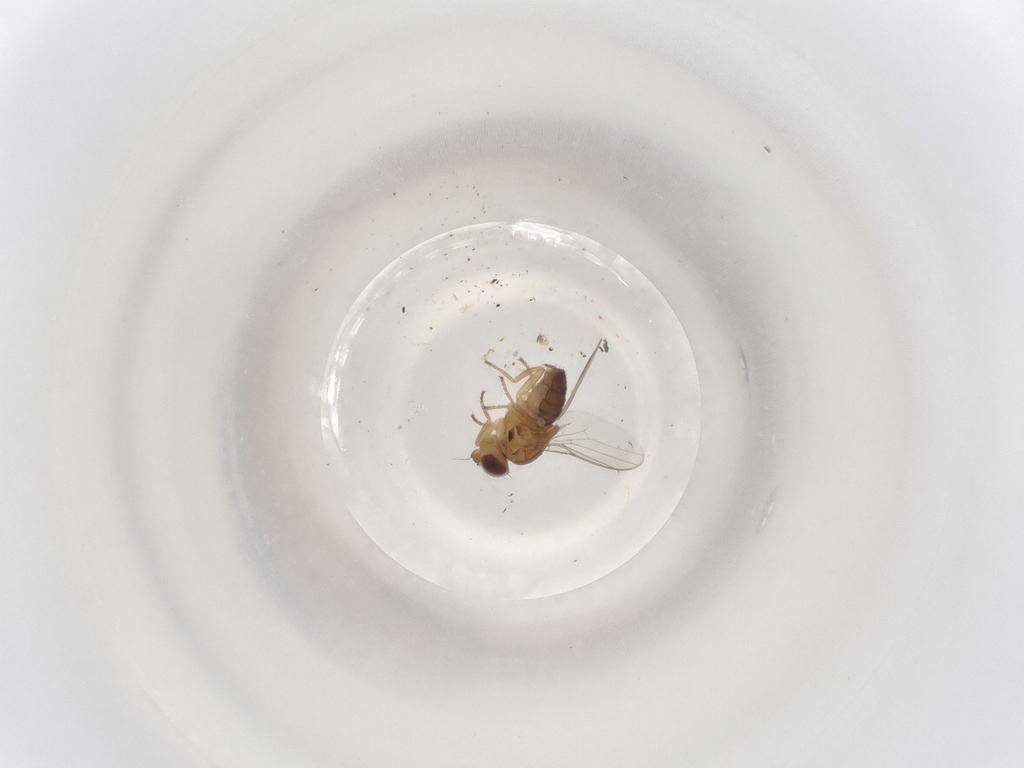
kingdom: Animalia
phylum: Arthropoda
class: Insecta
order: Diptera
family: Chloropidae
